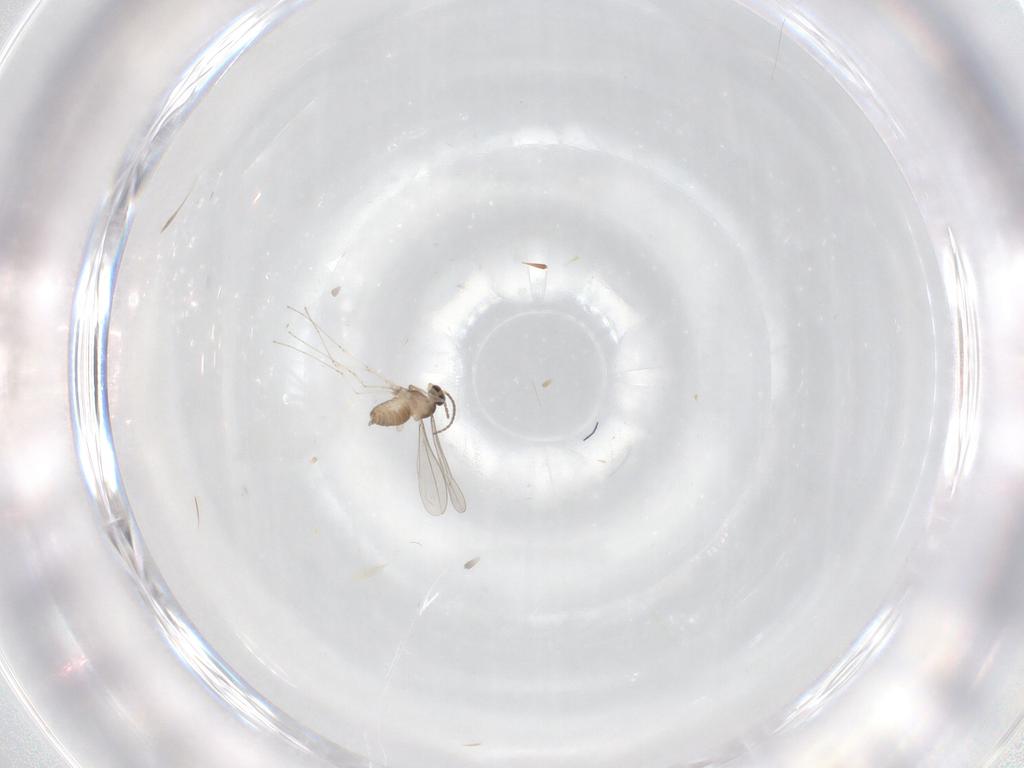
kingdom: Animalia
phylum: Arthropoda
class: Insecta
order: Diptera
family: Cecidomyiidae
